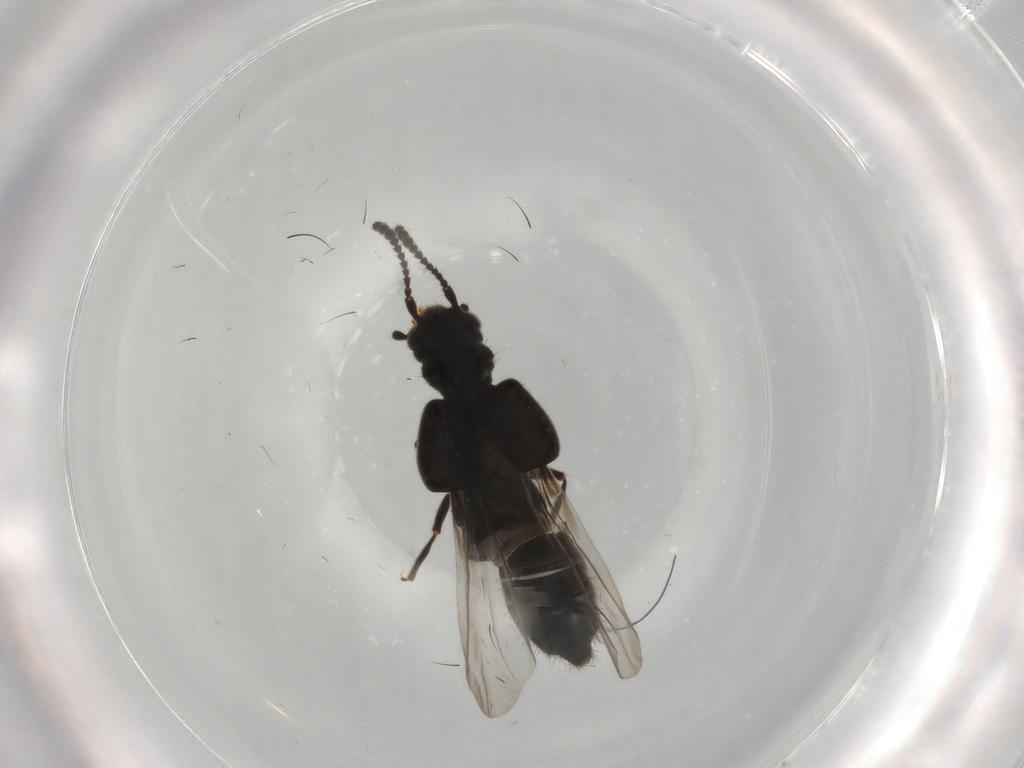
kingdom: Animalia
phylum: Arthropoda
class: Insecta
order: Coleoptera
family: Staphylinidae
